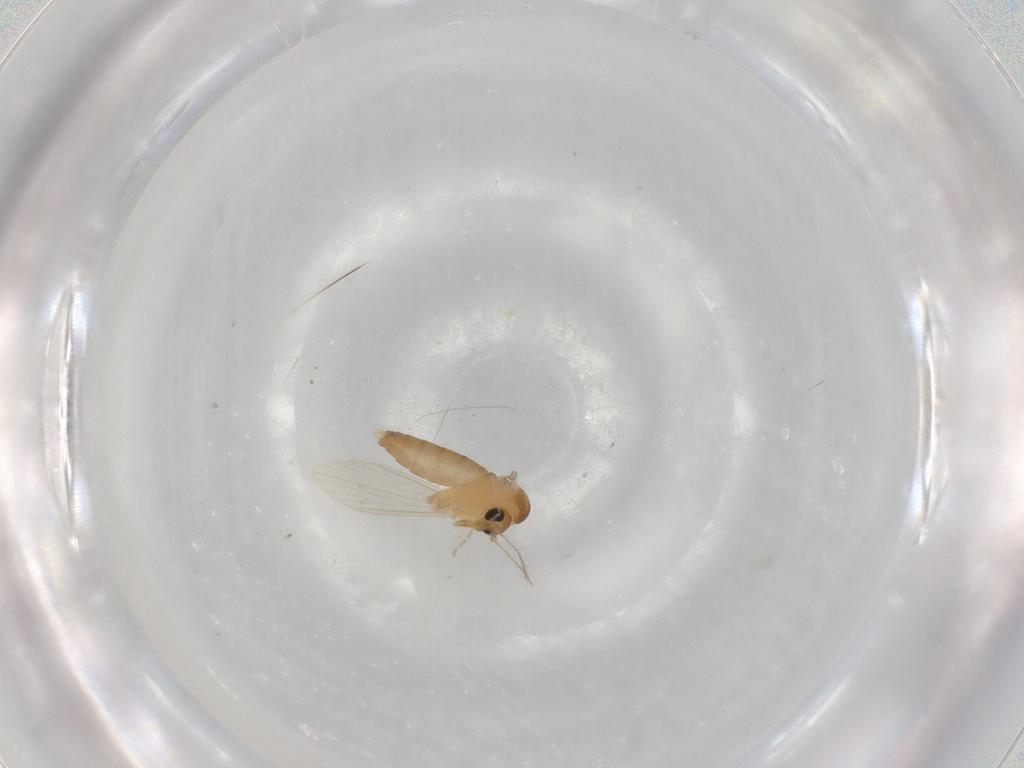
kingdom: Animalia
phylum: Arthropoda
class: Insecta
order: Diptera
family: Psychodidae
